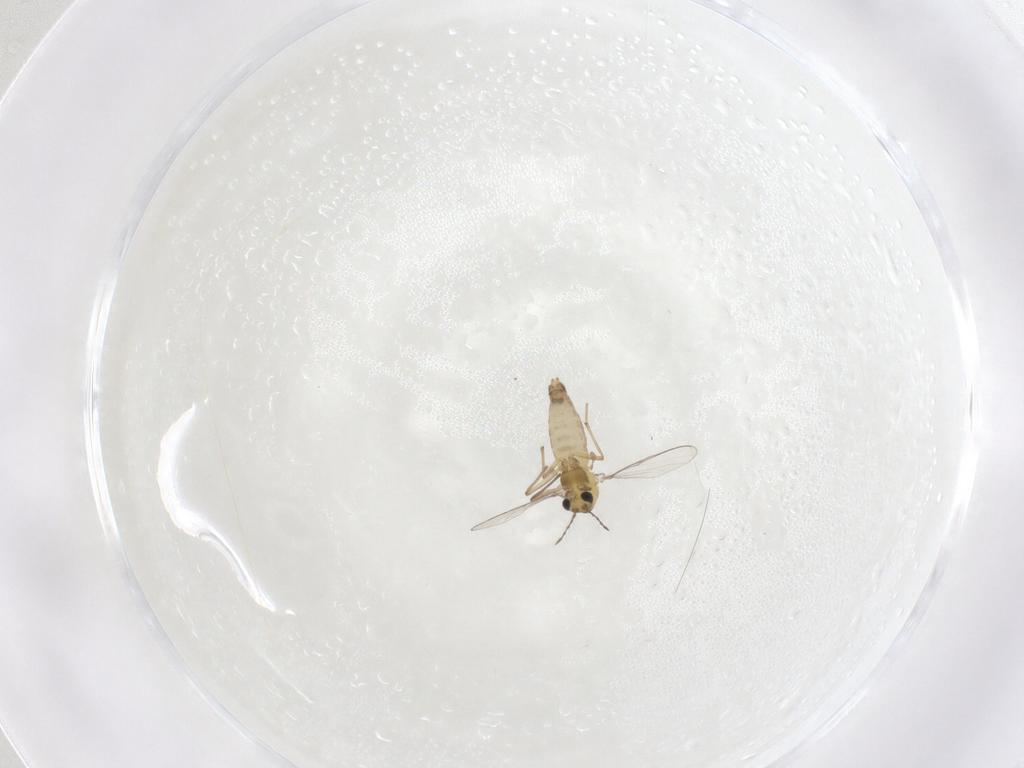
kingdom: Animalia
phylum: Arthropoda
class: Insecta
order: Diptera
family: Chironomidae
